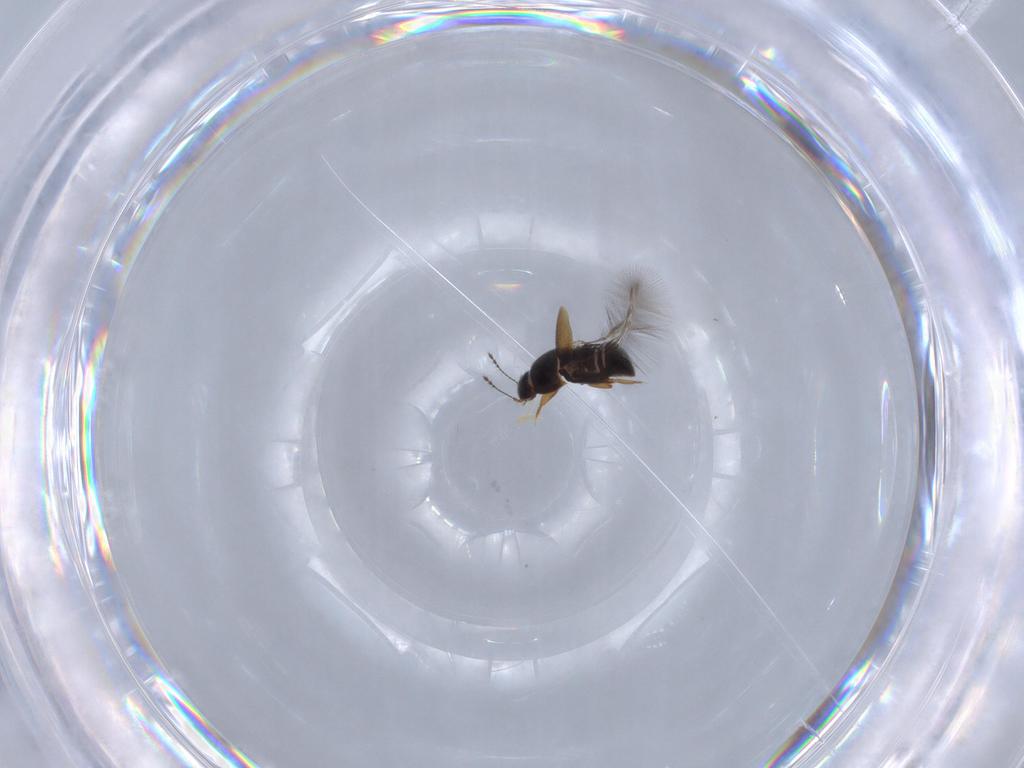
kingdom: Animalia
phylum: Arthropoda
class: Insecta
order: Coleoptera
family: Ptiliidae
